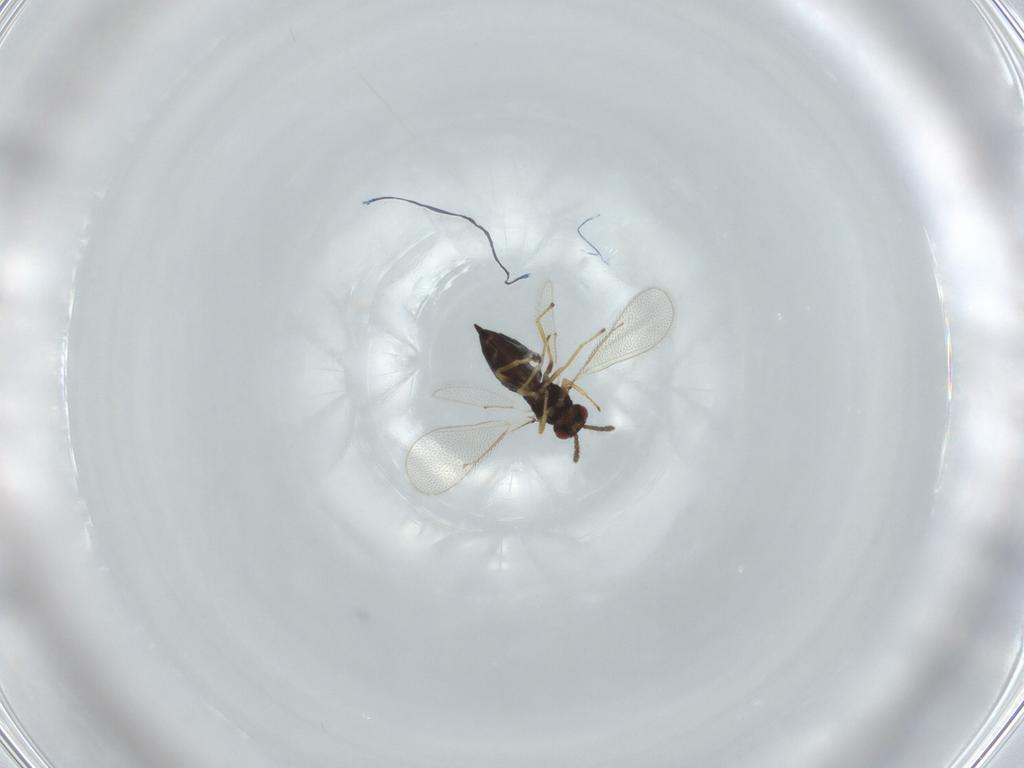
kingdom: Animalia
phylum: Arthropoda
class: Insecta
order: Hymenoptera
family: Eulophidae
